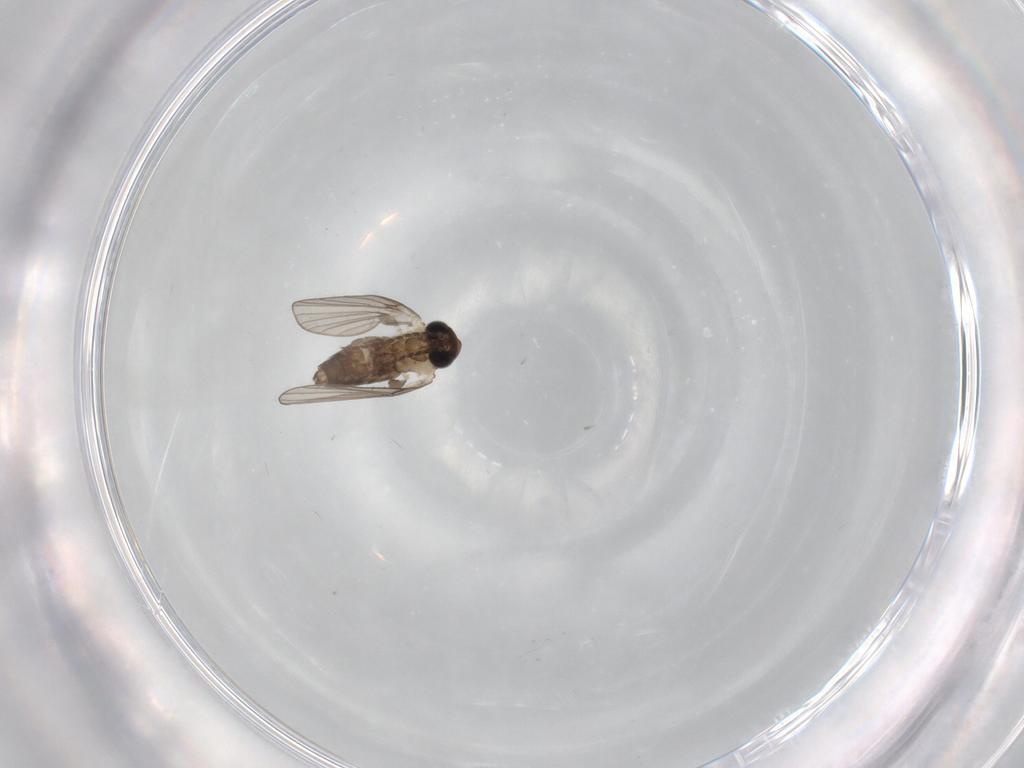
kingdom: Animalia
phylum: Arthropoda
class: Insecta
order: Diptera
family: Psychodidae
